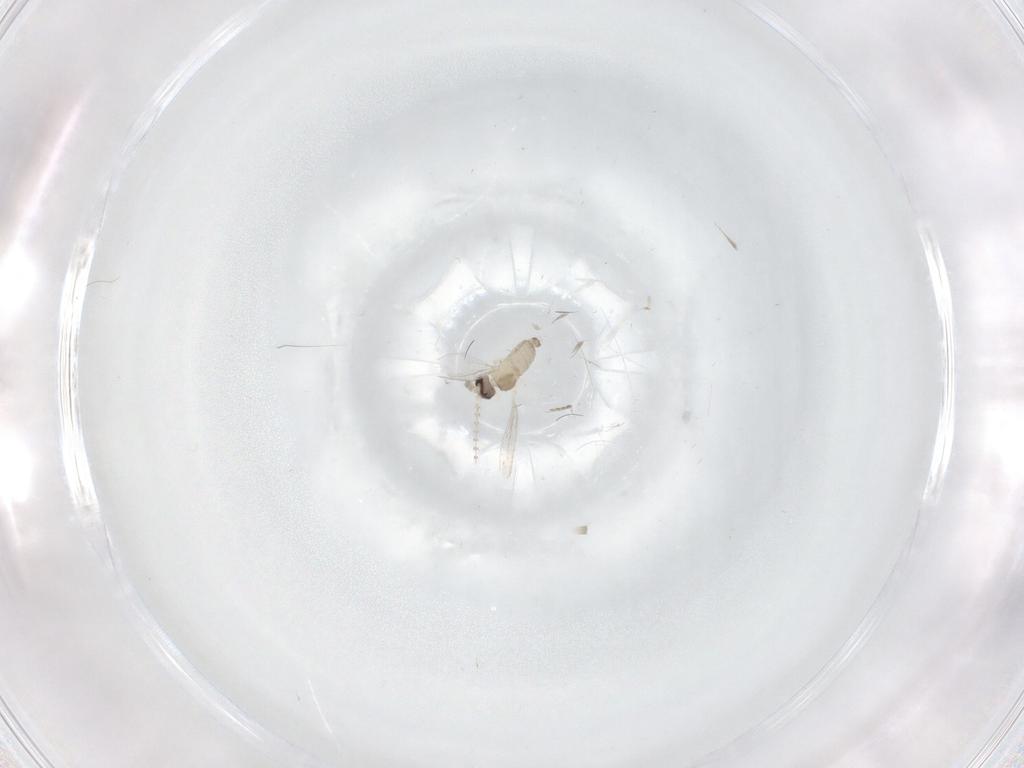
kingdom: Animalia
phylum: Arthropoda
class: Insecta
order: Diptera
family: Cecidomyiidae
